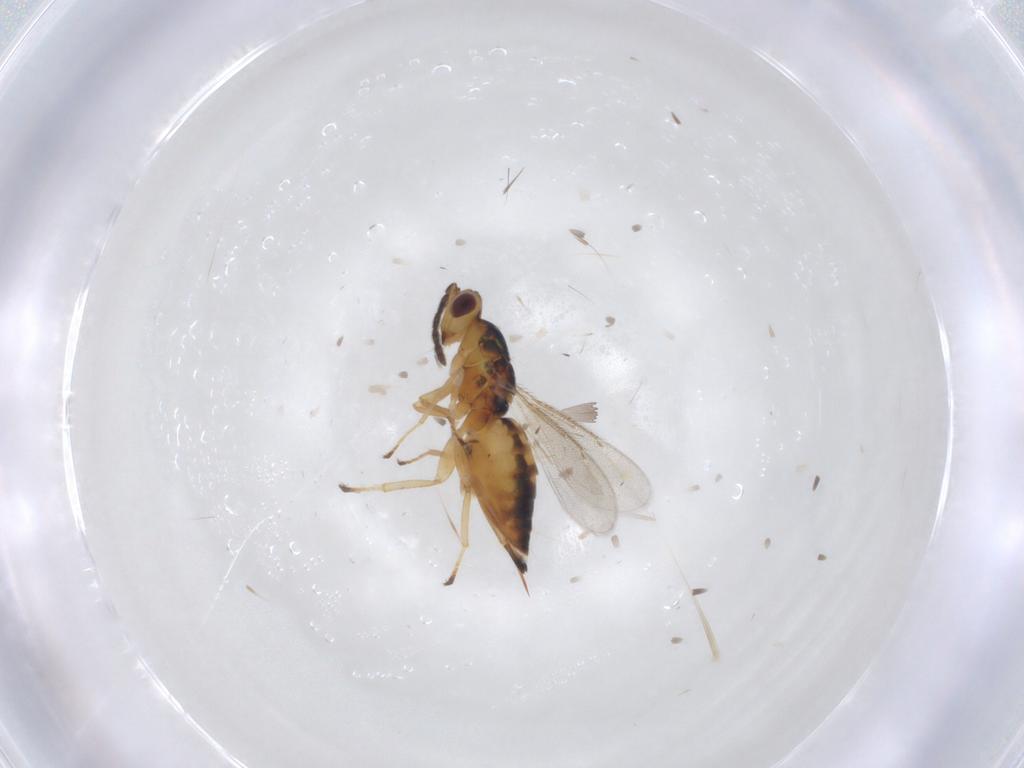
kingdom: Animalia
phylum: Arthropoda
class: Insecta
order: Hymenoptera
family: Eulophidae
